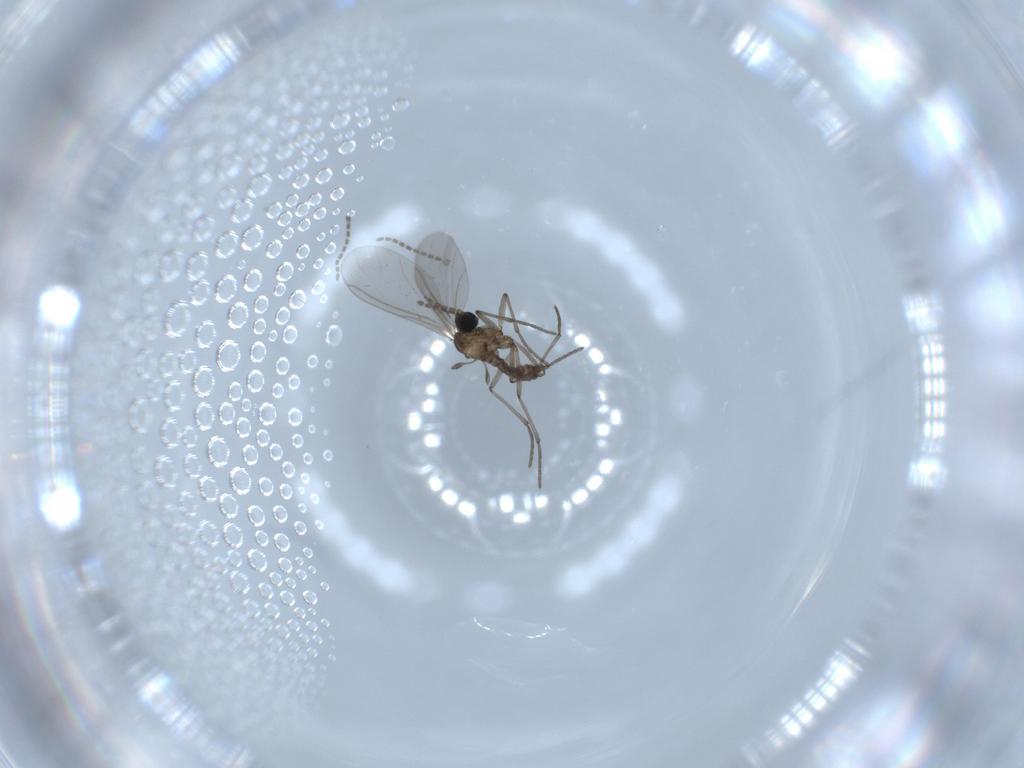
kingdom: Animalia
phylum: Arthropoda
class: Insecta
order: Diptera
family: Sciaridae
